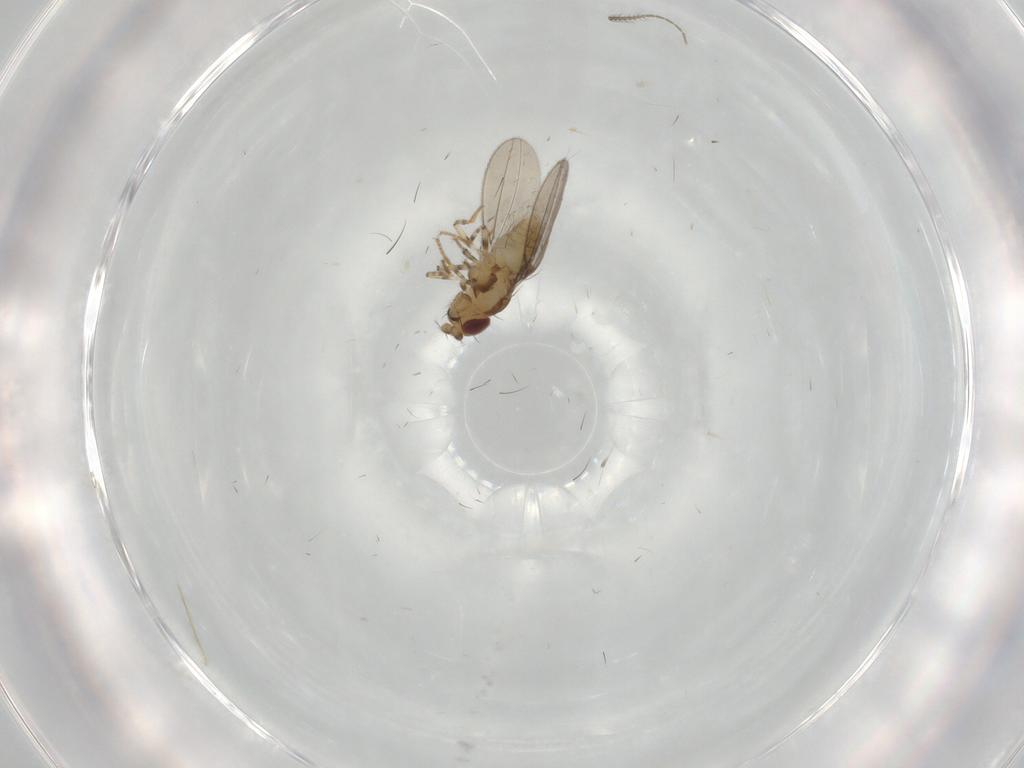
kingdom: Animalia
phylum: Arthropoda
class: Insecta
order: Diptera
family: Asteiidae
